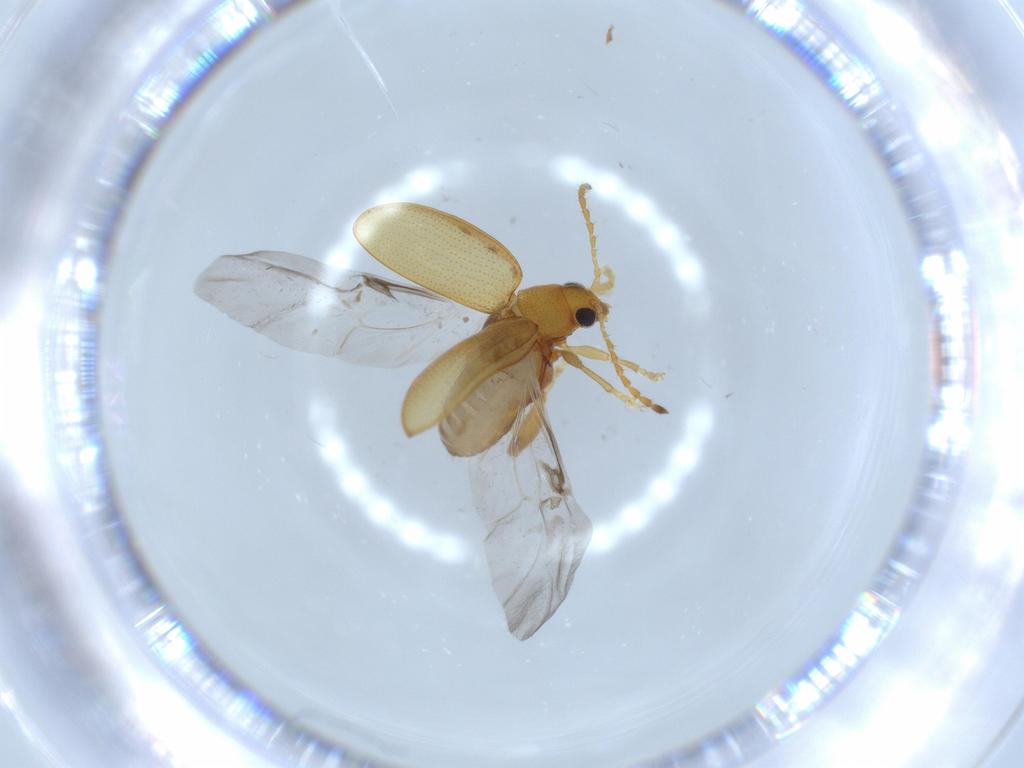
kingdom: Animalia
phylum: Arthropoda
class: Insecta
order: Coleoptera
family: Chrysomelidae
